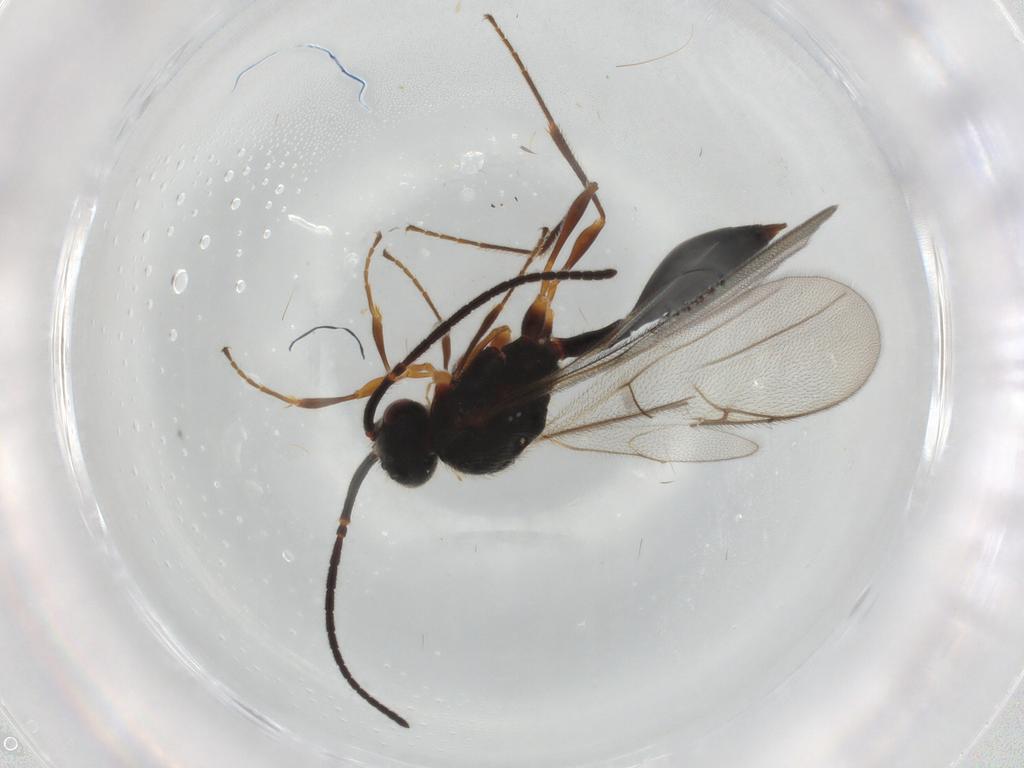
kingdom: Animalia
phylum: Arthropoda
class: Insecta
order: Hymenoptera
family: Diapriidae
